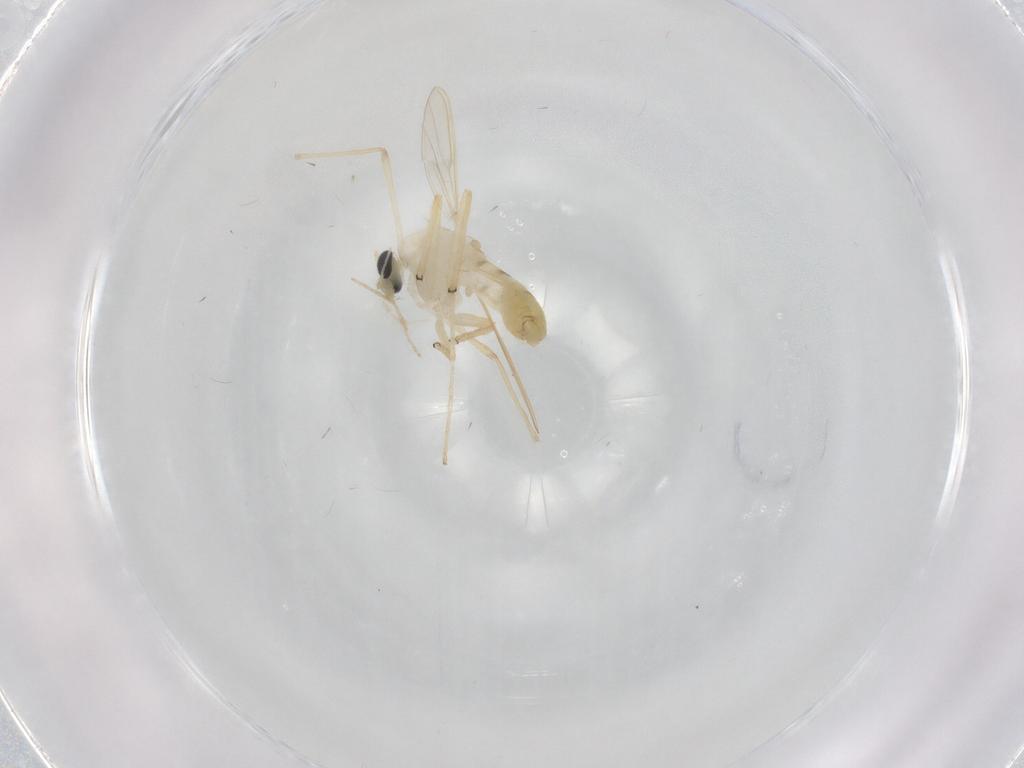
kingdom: Animalia
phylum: Arthropoda
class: Insecta
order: Diptera
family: Chironomidae
